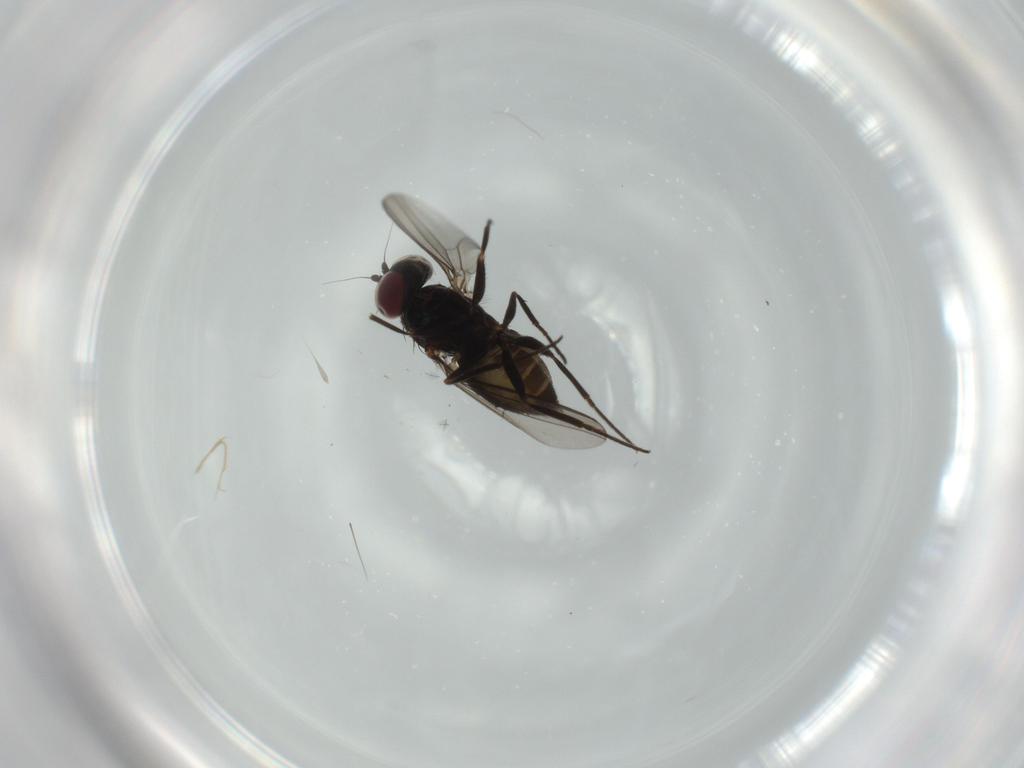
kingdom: Animalia
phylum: Arthropoda
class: Insecta
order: Diptera
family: Dolichopodidae
